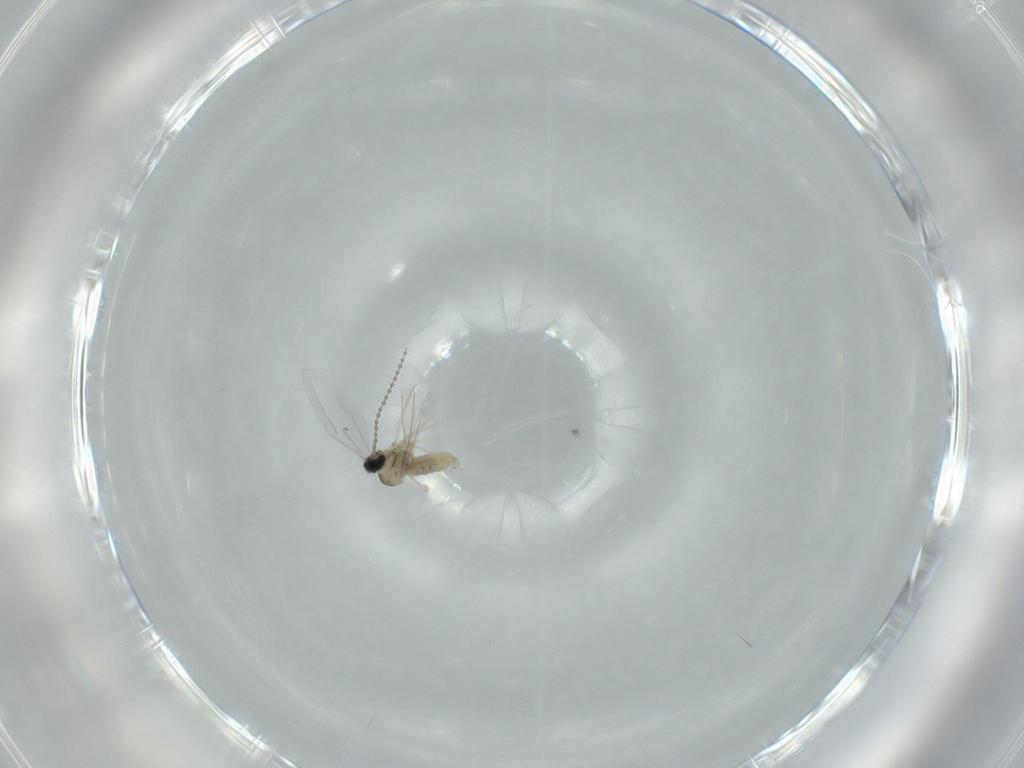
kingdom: Animalia
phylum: Arthropoda
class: Insecta
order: Diptera
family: Cecidomyiidae
